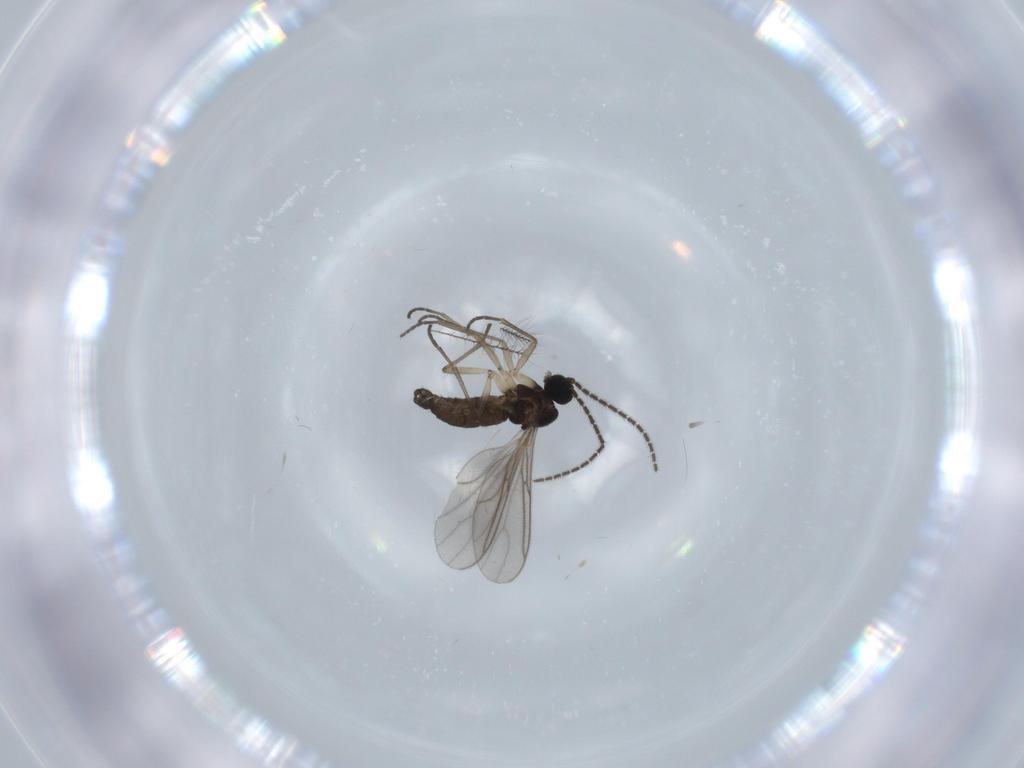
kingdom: Animalia
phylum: Arthropoda
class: Insecta
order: Diptera
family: Sciaridae
